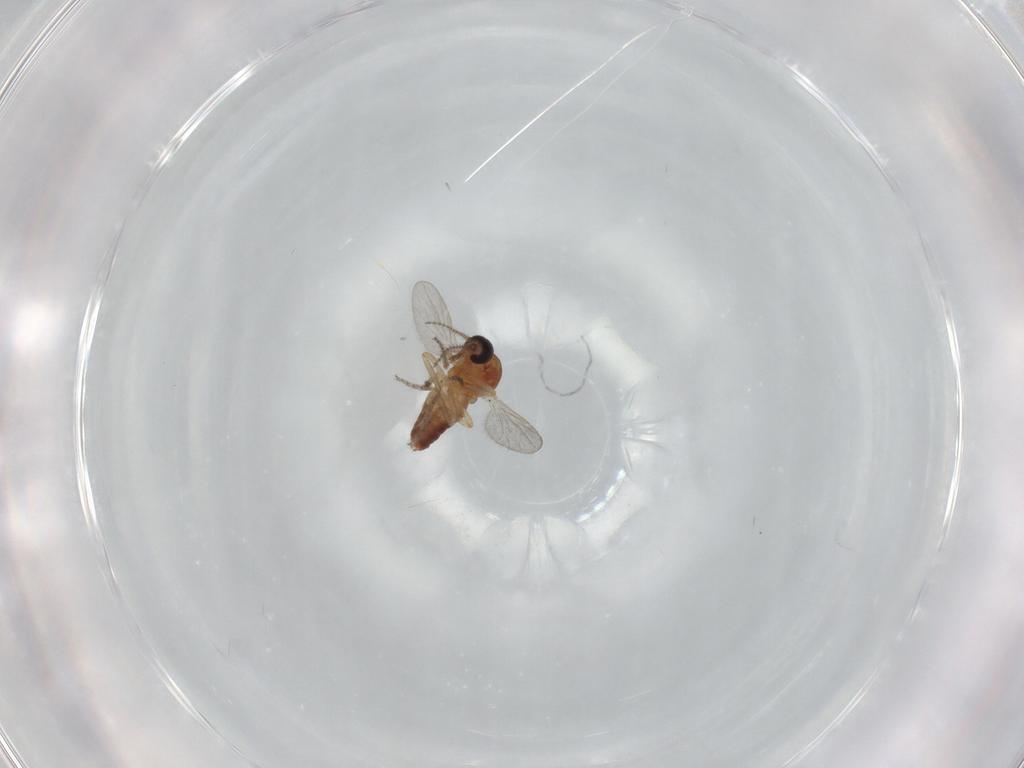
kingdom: Animalia
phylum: Arthropoda
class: Insecta
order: Diptera
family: Ceratopogonidae
